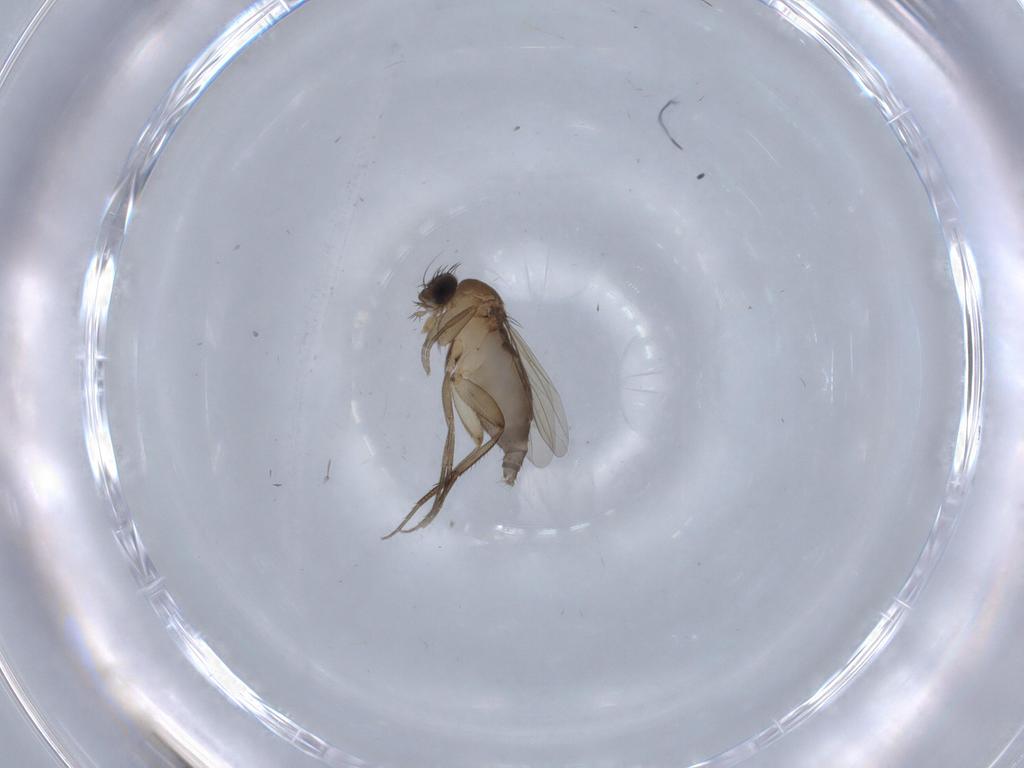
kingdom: Animalia
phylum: Arthropoda
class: Insecta
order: Diptera
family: Phoridae
